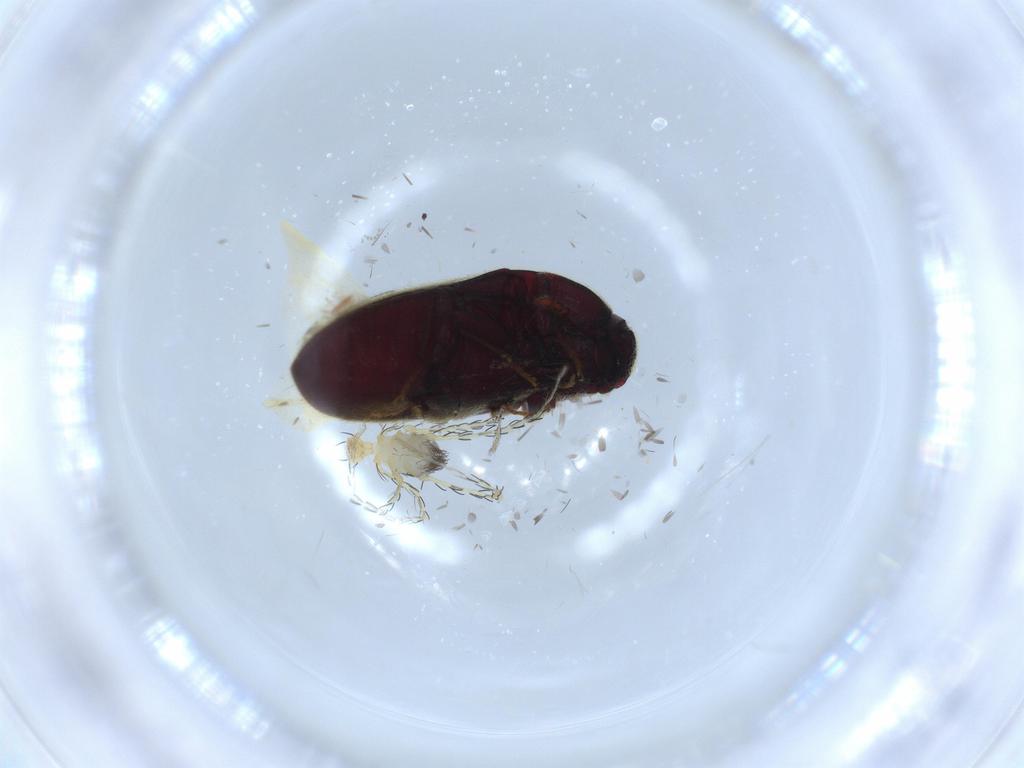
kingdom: Animalia
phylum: Arthropoda
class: Insecta
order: Coleoptera
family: Throscidae
